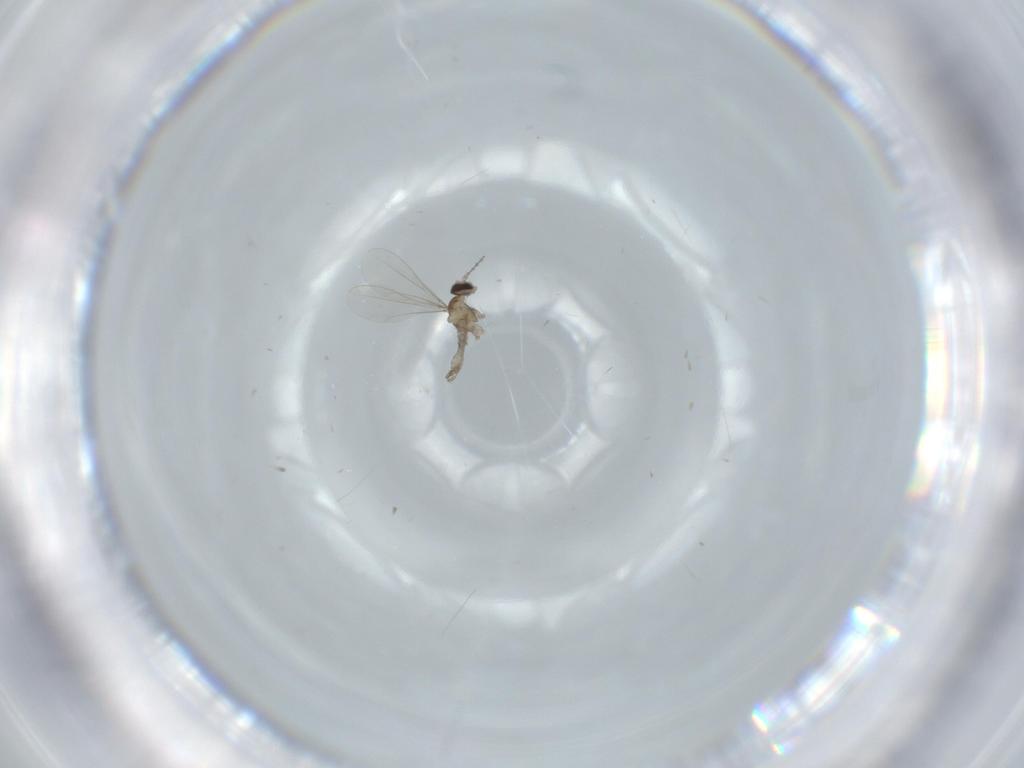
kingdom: Animalia
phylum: Arthropoda
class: Insecta
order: Diptera
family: Cecidomyiidae
